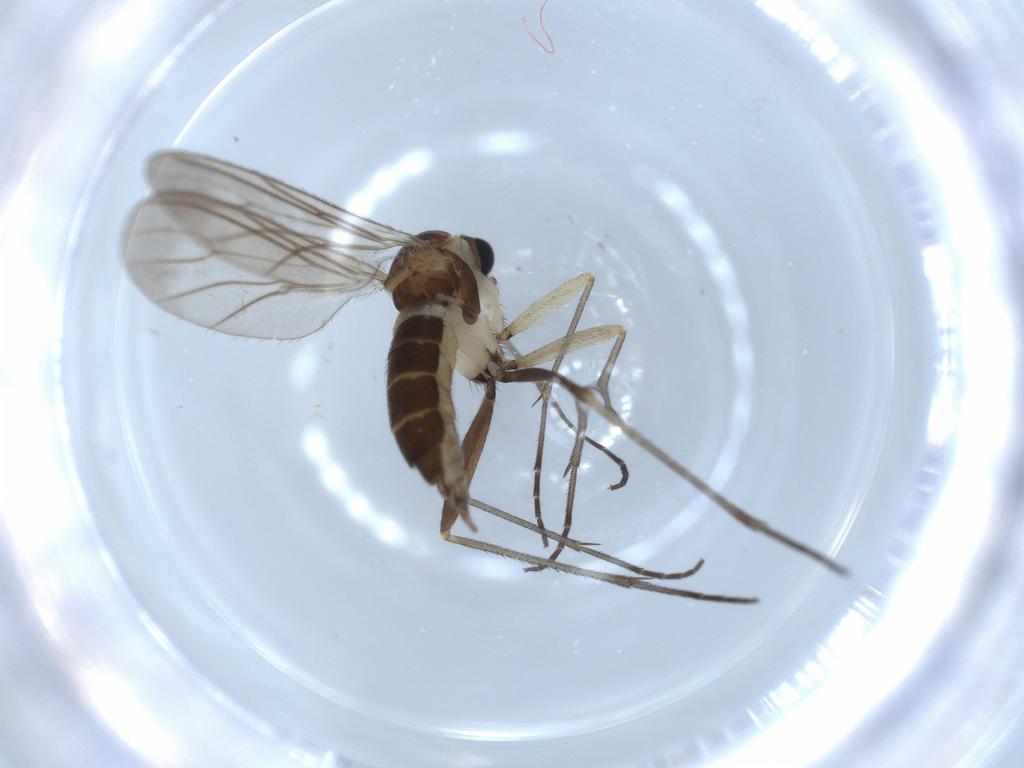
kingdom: Animalia
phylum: Arthropoda
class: Insecta
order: Diptera
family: Sciaridae
